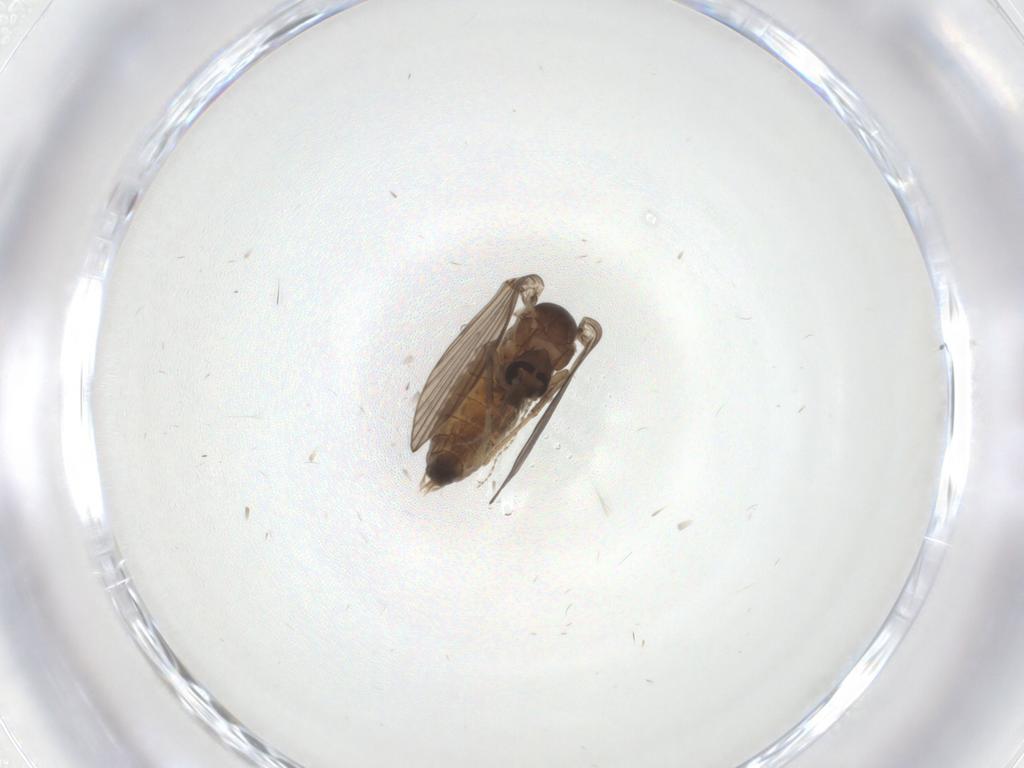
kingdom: Animalia
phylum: Arthropoda
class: Insecta
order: Diptera
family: Psychodidae
